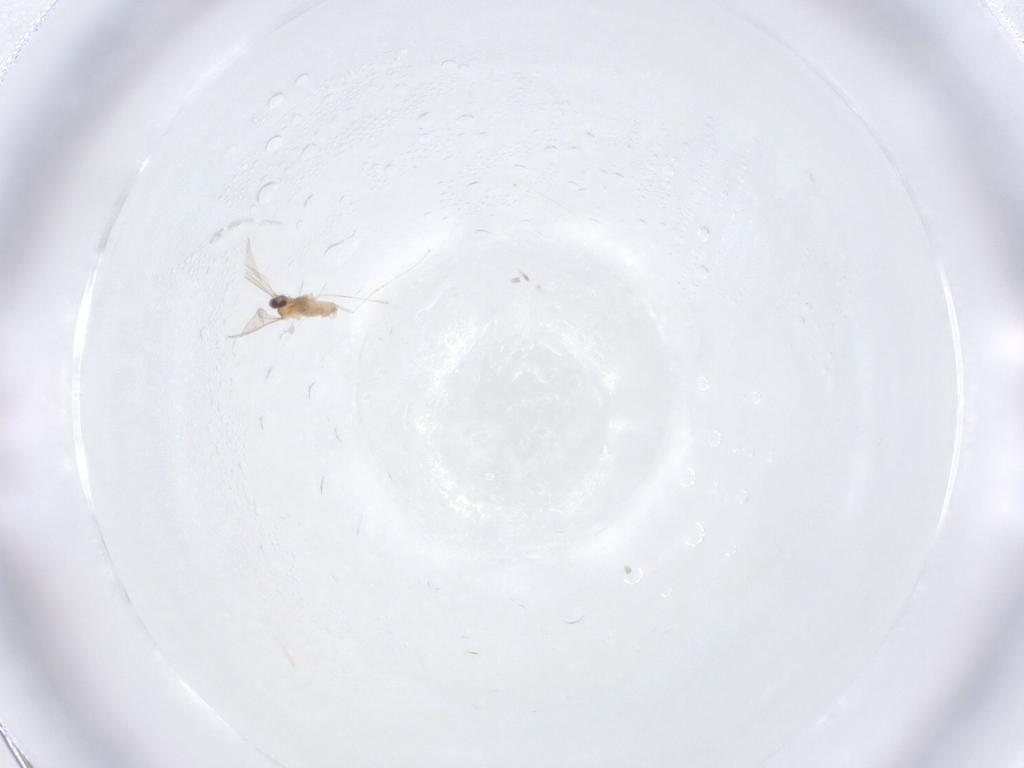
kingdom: Animalia
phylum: Arthropoda
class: Insecta
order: Diptera
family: Cecidomyiidae
